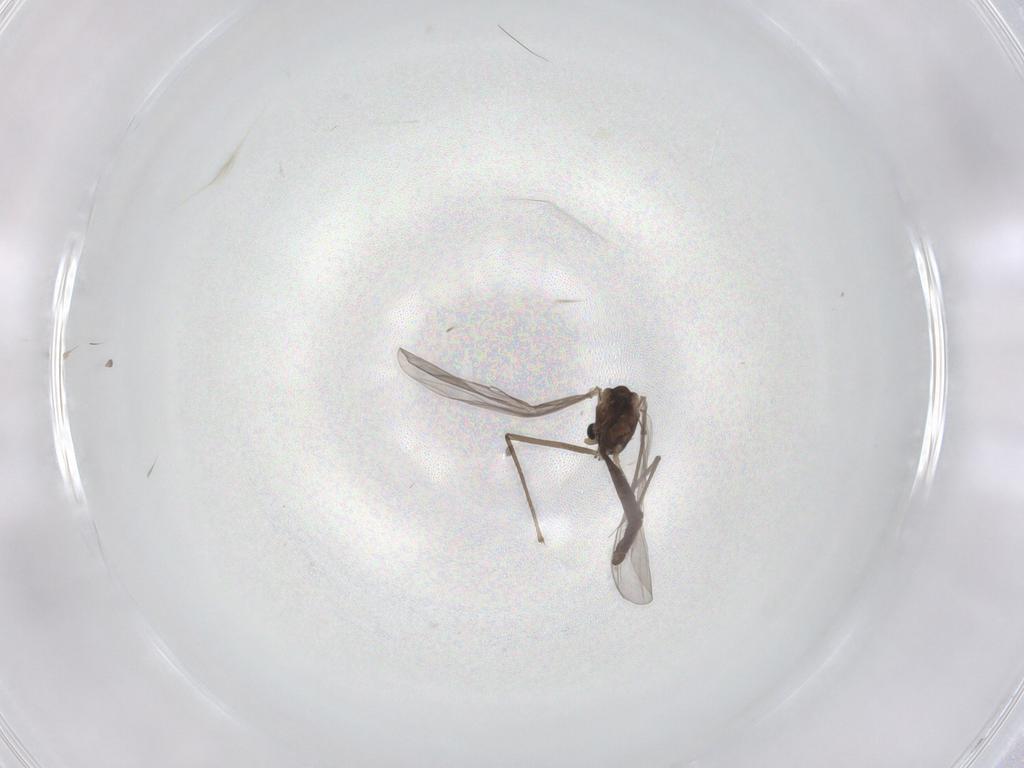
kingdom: Animalia
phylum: Arthropoda
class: Insecta
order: Diptera
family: Chironomidae
